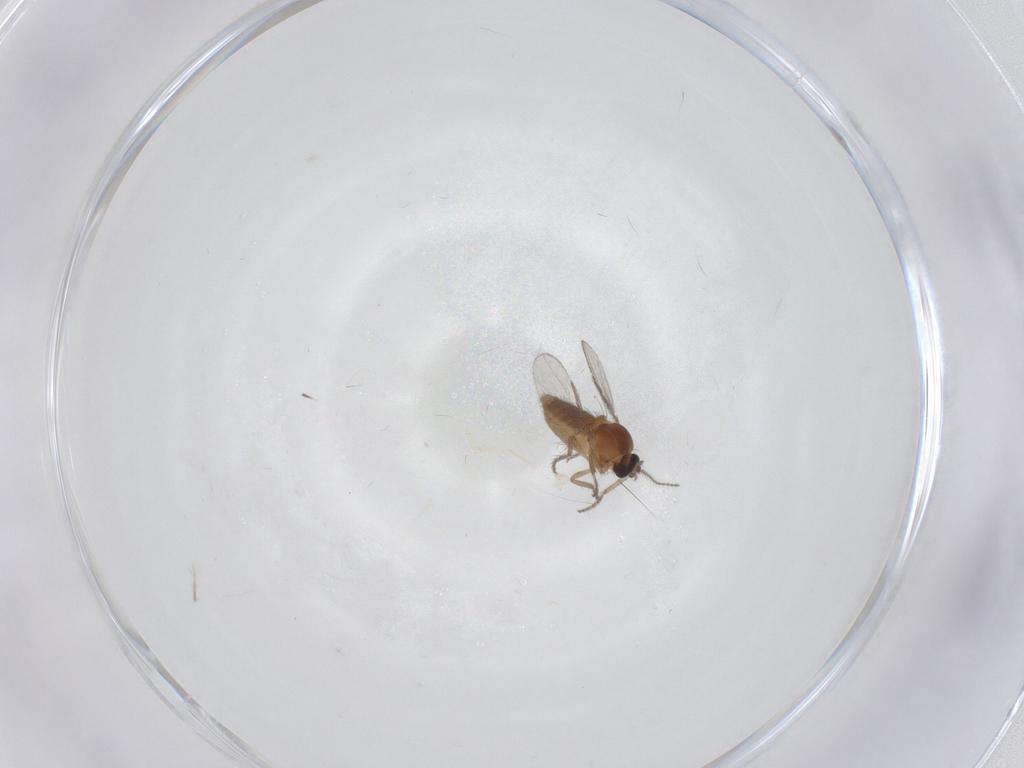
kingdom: Animalia
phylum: Arthropoda
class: Insecta
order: Diptera
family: Ceratopogonidae
